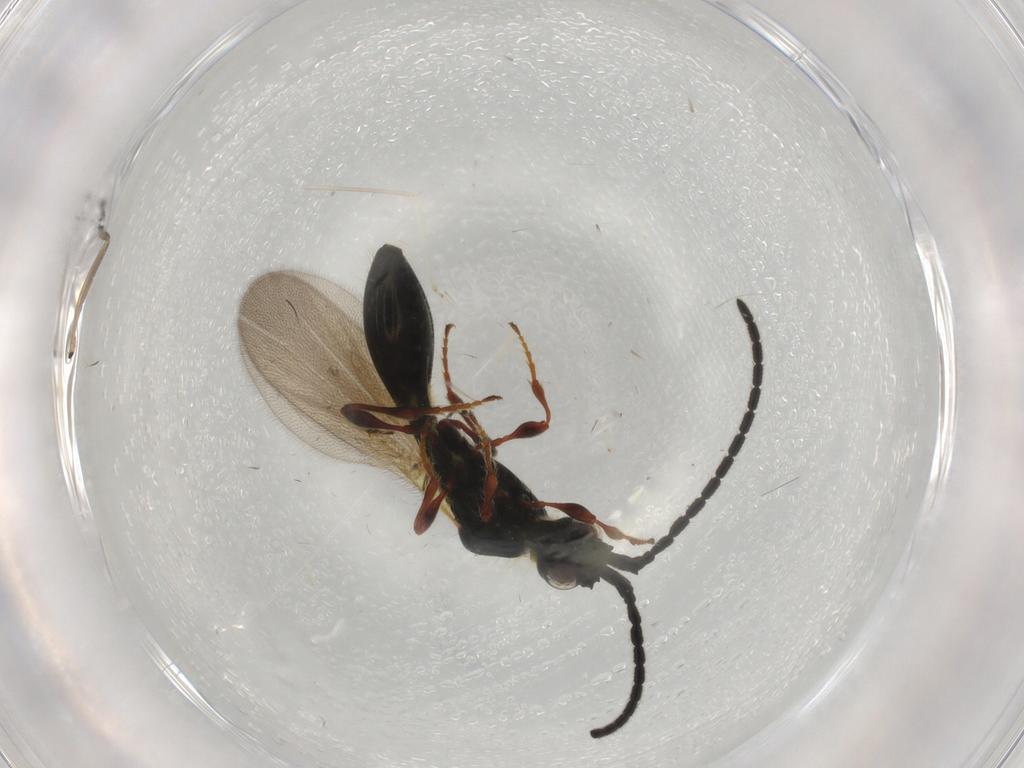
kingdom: Animalia
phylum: Arthropoda
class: Insecta
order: Hymenoptera
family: Diapriidae
